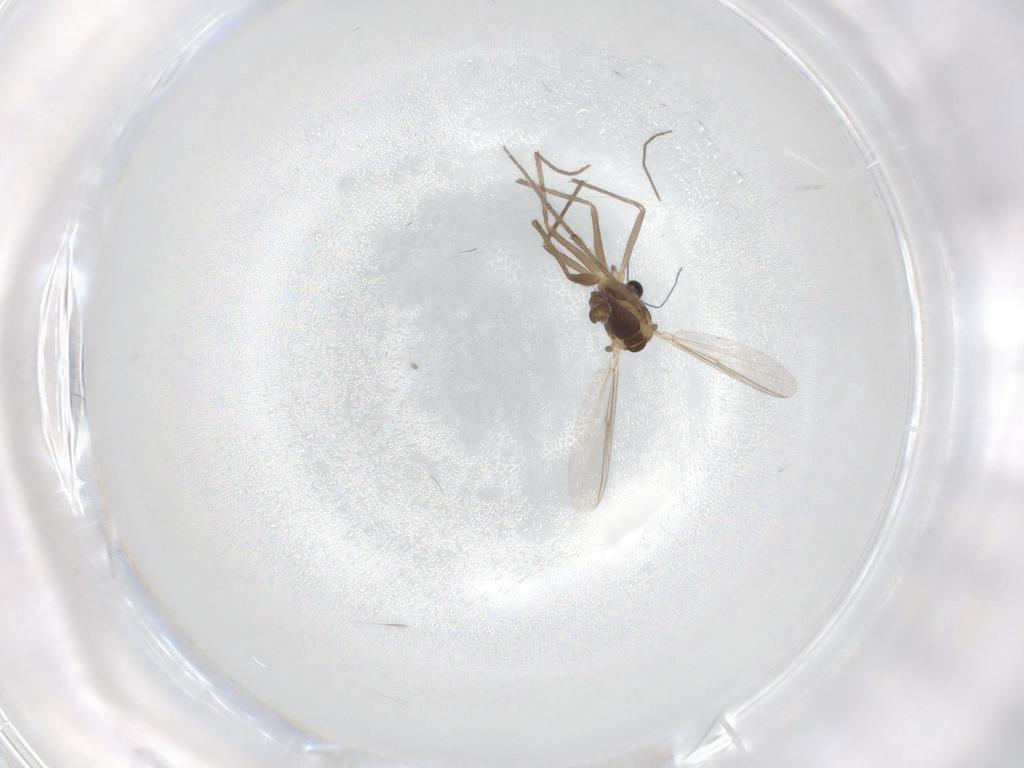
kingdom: Animalia
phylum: Arthropoda
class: Insecta
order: Diptera
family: Chironomidae
